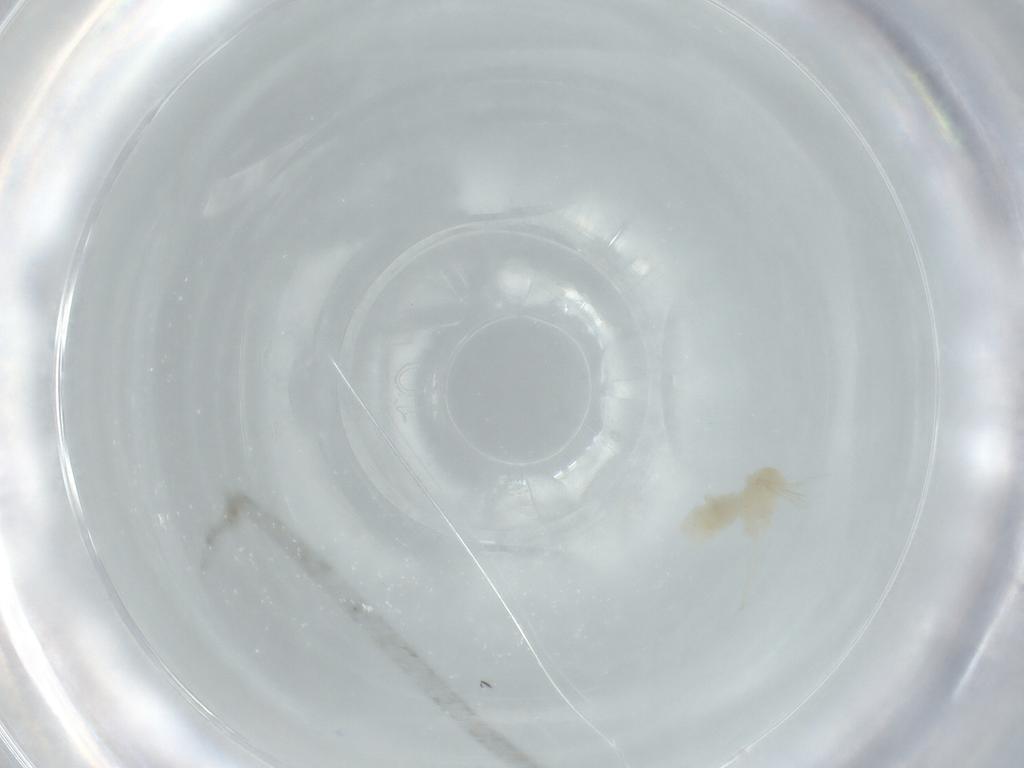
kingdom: Animalia
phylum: Arthropoda
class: Insecta
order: Diptera
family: Cecidomyiidae
